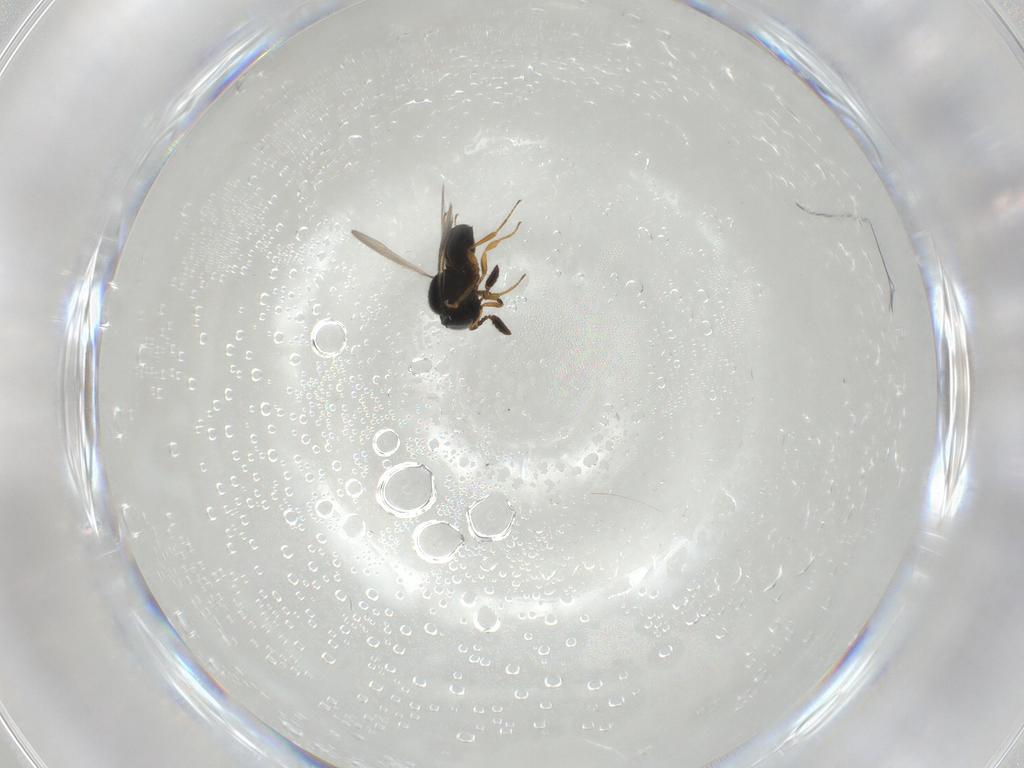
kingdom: Animalia
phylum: Arthropoda
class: Insecta
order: Hymenoptera
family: Scelionidae
